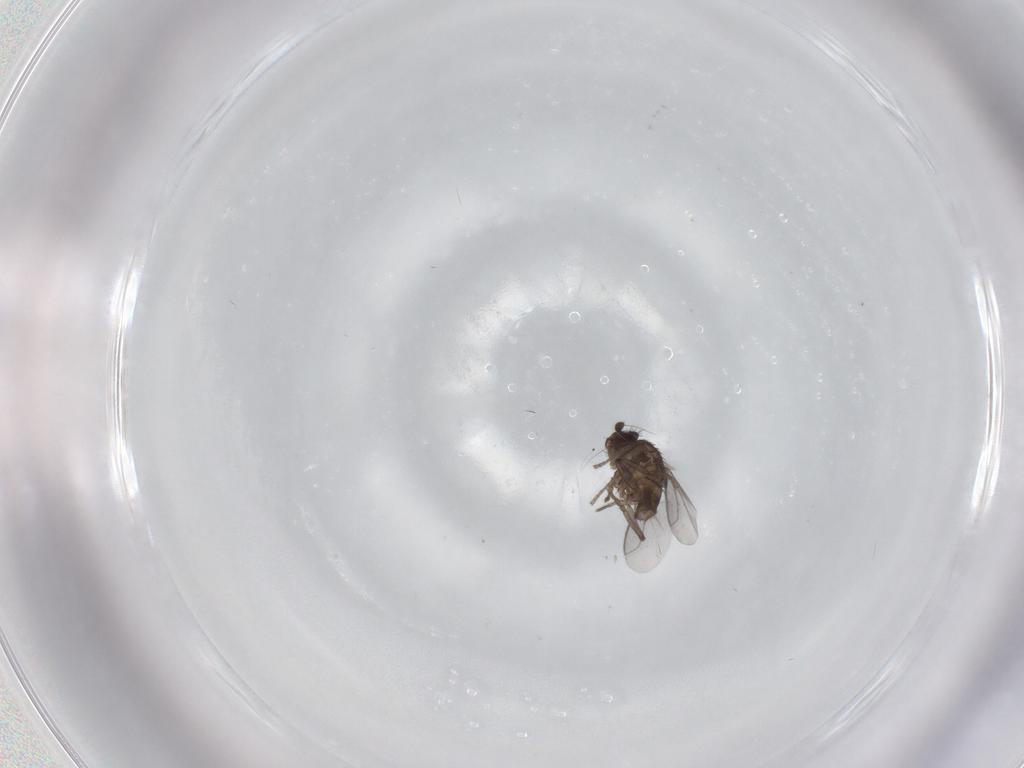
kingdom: Animalia
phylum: Arthropoda
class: Insecta
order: Diptera
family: Sphaeroceridae
